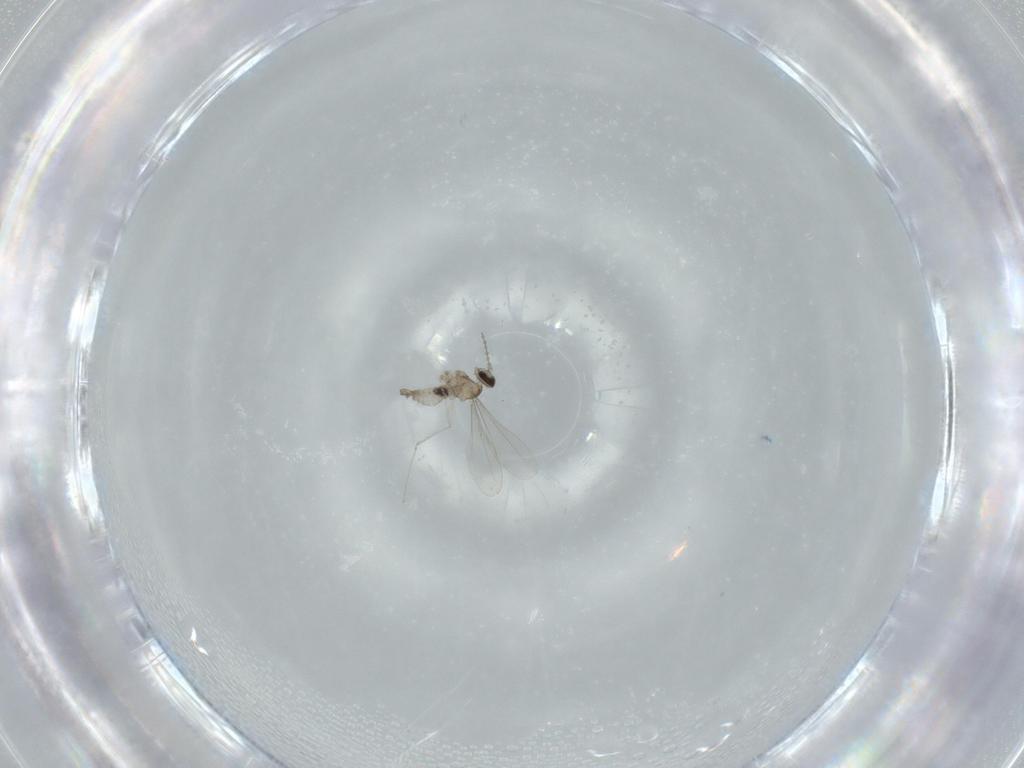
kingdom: Animalia
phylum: Arthropoda
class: Insecta
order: Diptera
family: Cecidomyiidae
